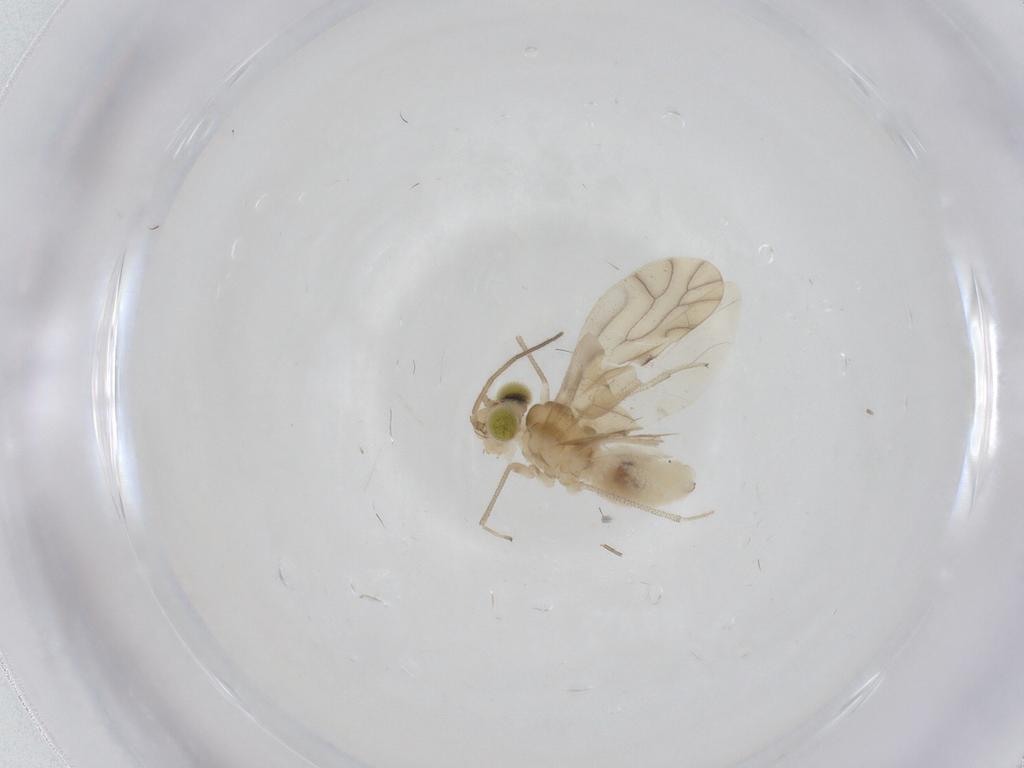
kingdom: Animalia
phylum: Arthropoda
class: Insecta
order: Psocodea
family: Caeciliusidae
